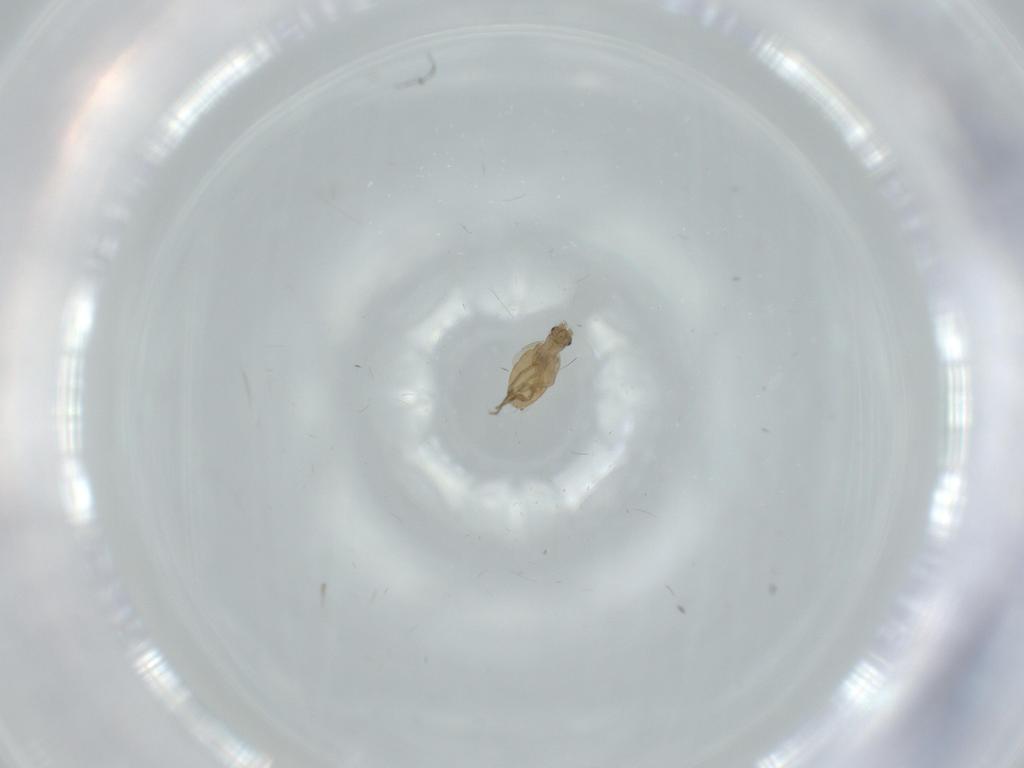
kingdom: Animalia
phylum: Arthropoda
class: Insecta
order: Diptera
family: Phoridae
